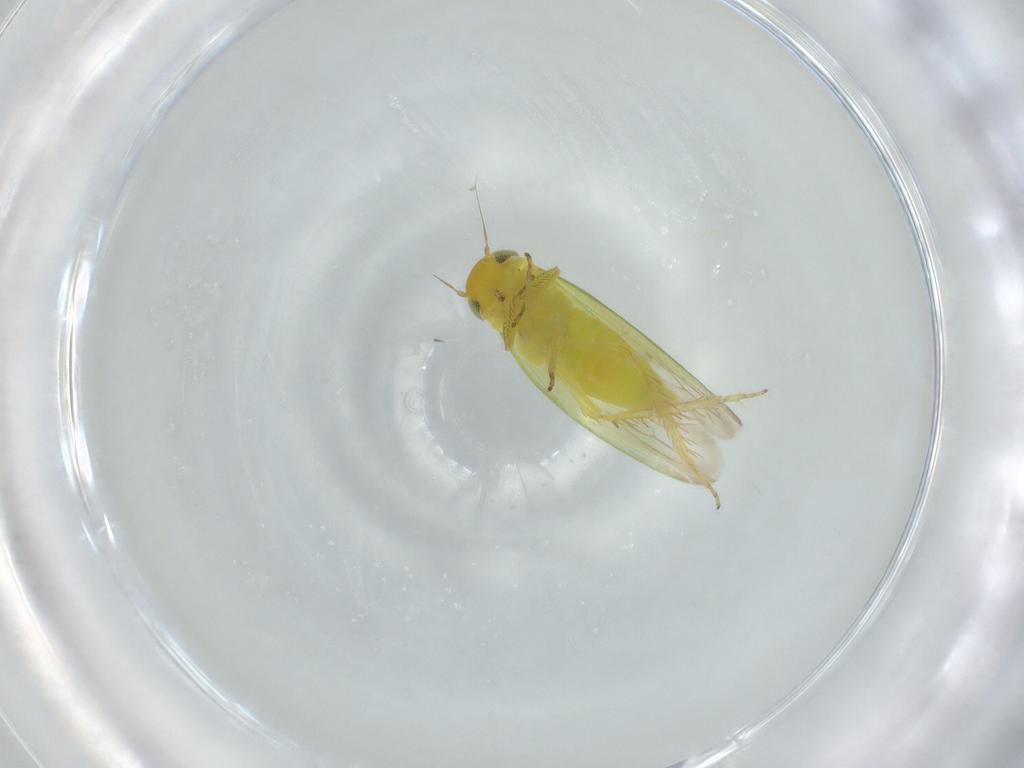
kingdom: Animalia
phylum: Arthropoda
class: Insecta
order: Hemiptera
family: Cicadellidae
